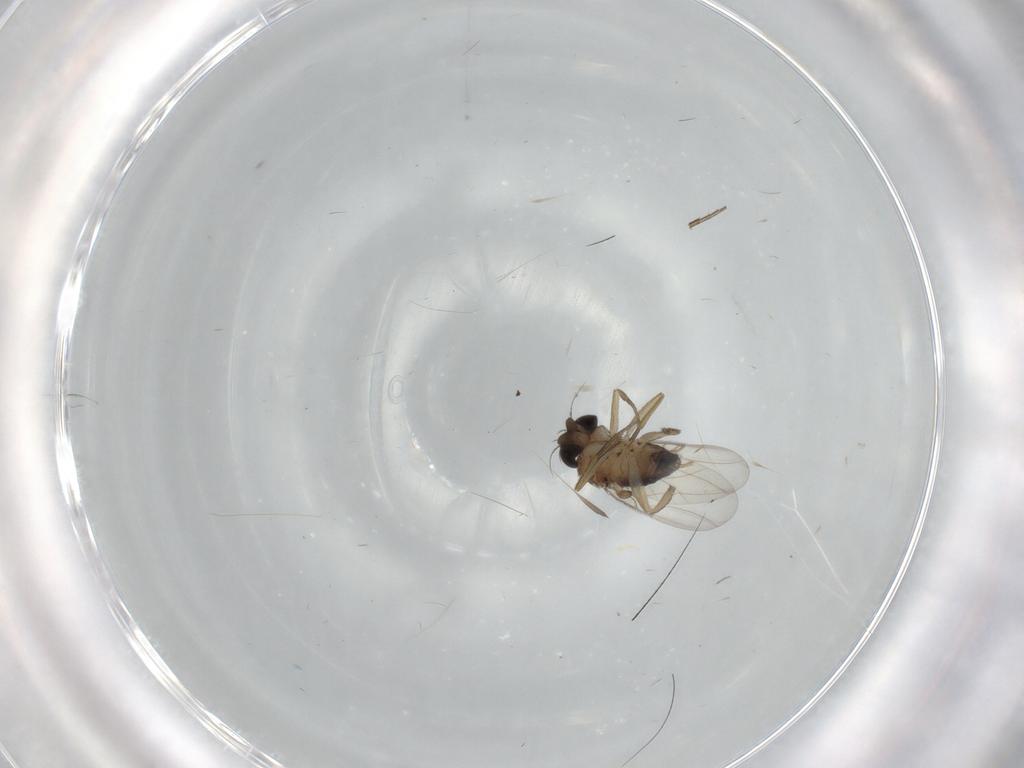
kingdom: Animalia
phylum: Arthropoda
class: Insecta
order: Diptera
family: Phoridae
